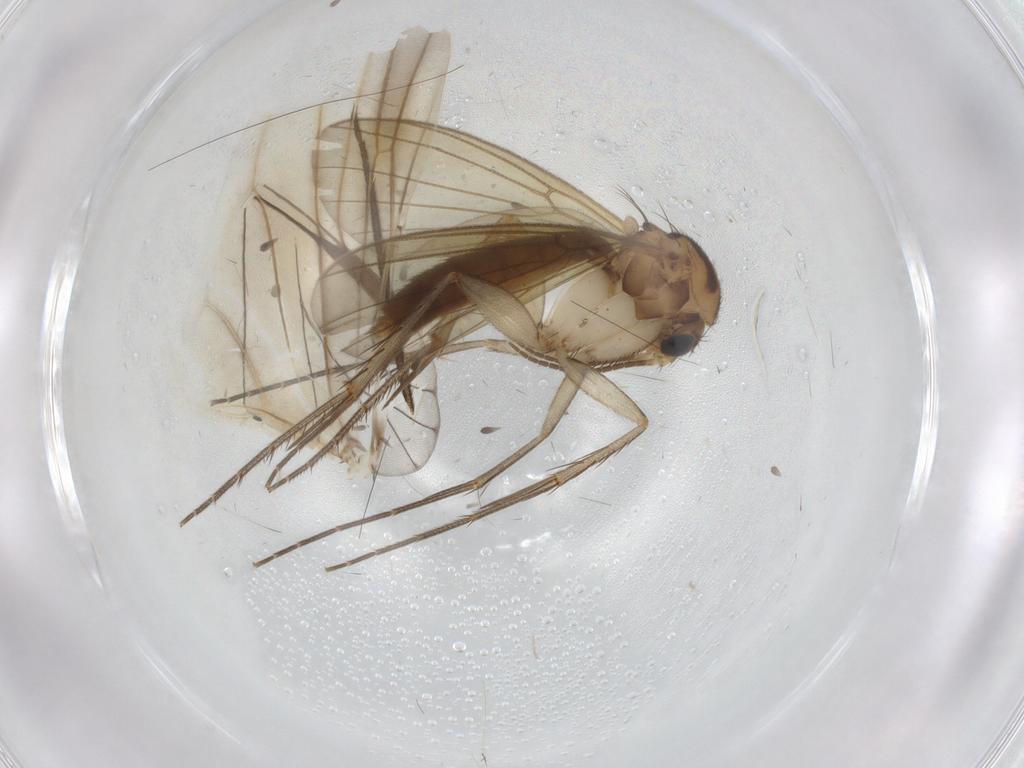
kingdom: Animalia
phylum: Arthropoda
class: Insecta
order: Diptera
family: Mycetophilidae
